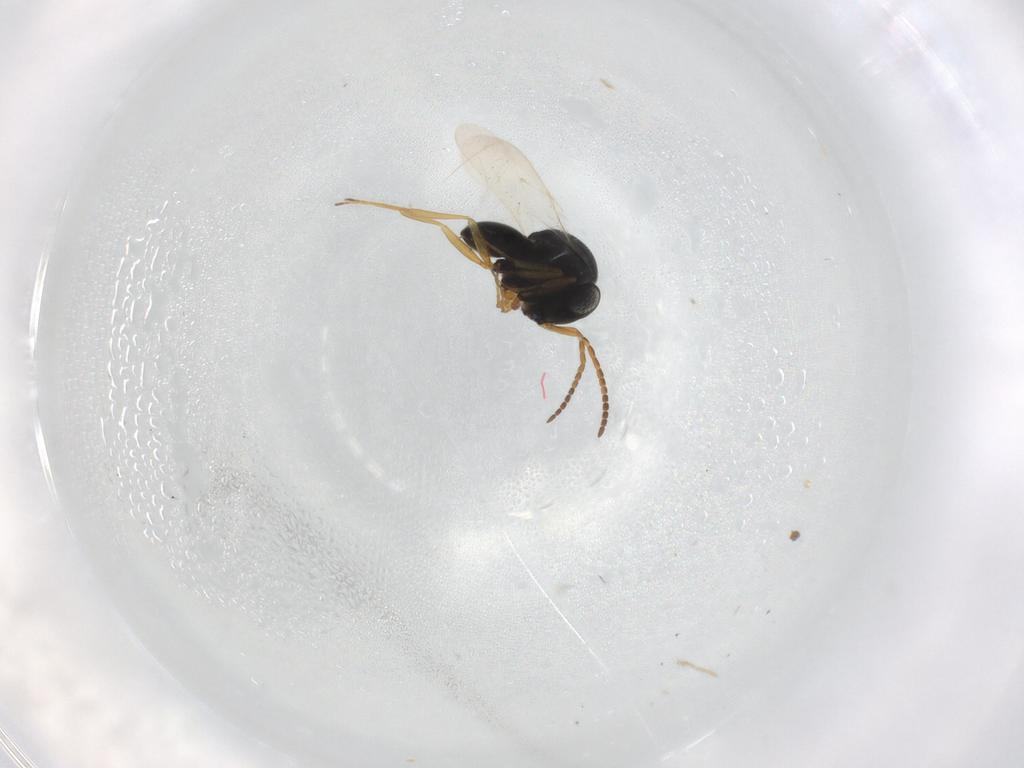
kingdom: Animalia
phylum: Arthropoda
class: Insecta
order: Hymenoptera
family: Scelionidae
